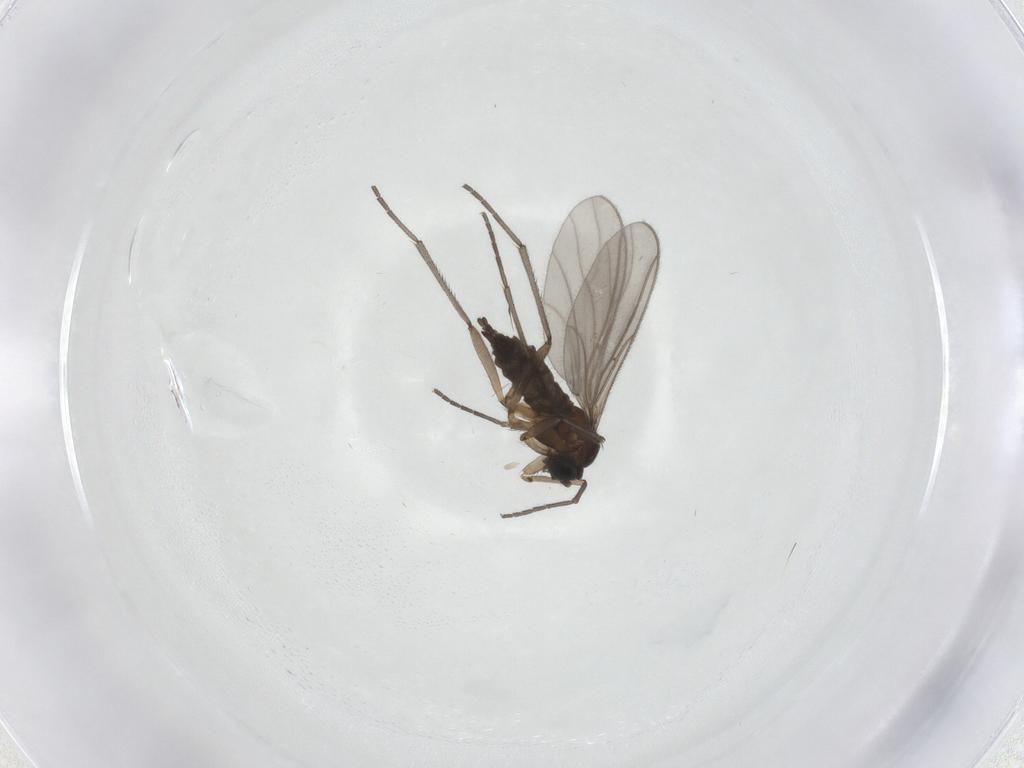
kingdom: Animalia
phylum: Arthropoda
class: Insecta
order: Diptera
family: Sciaridae
